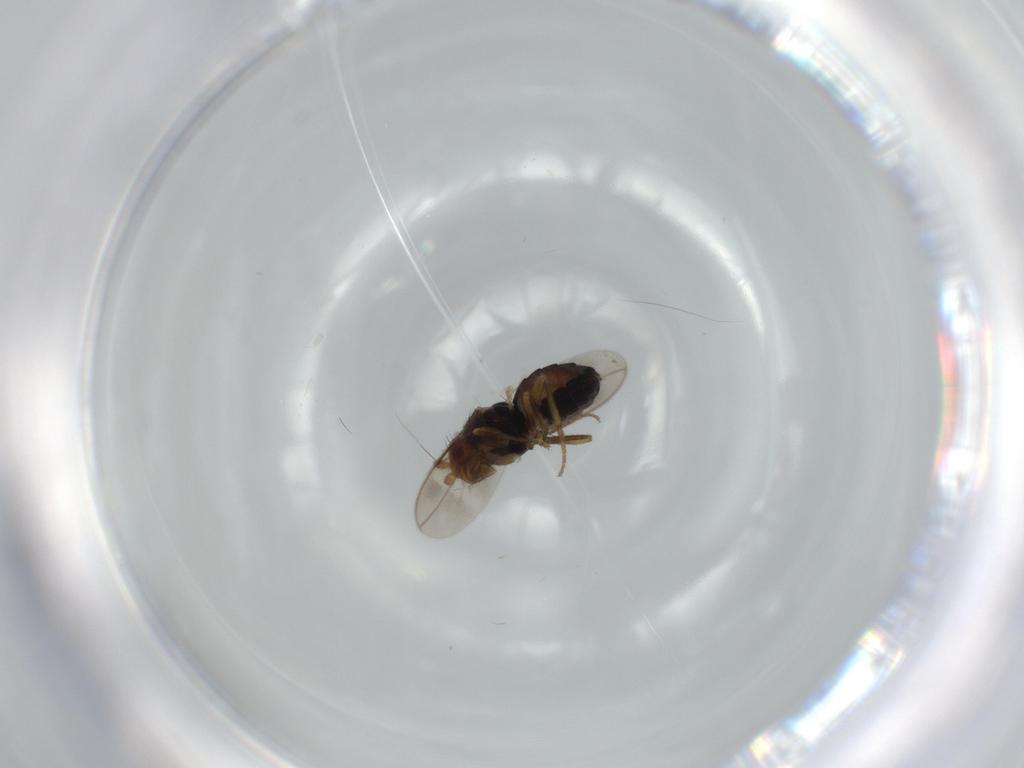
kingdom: Animalia
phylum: Arthropoda
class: Insecta
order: Diptera
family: Sphaeroceridae
